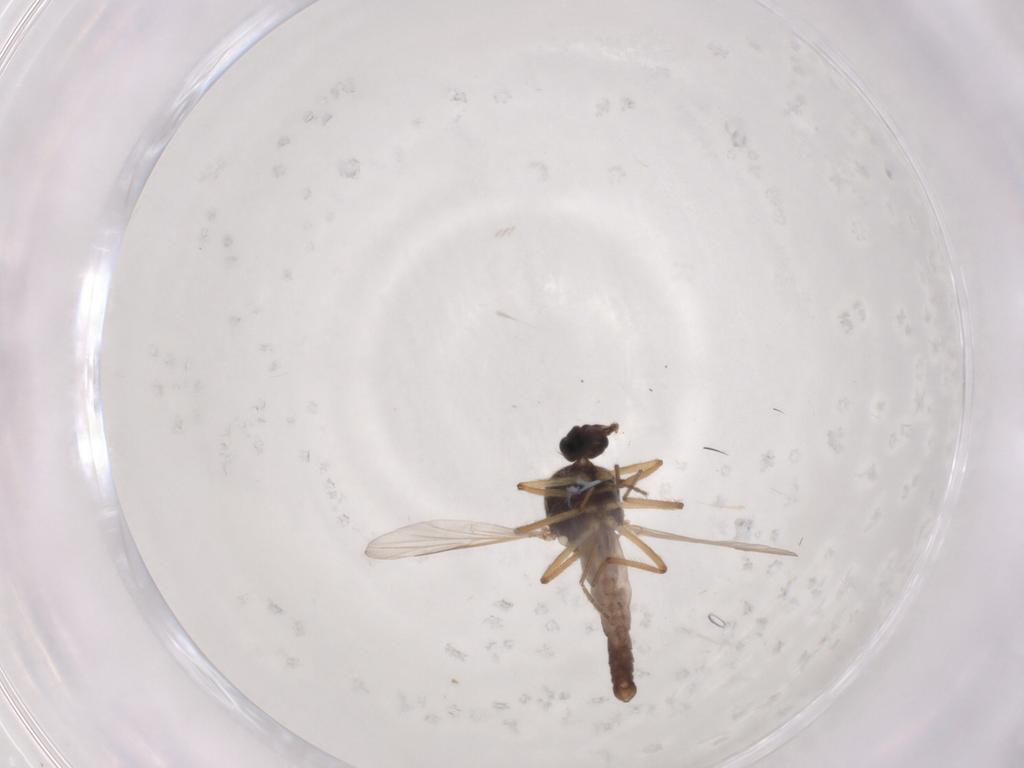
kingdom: Animalia
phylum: Arthropoda
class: Insecta
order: Diptera
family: Ceratopogonidae
